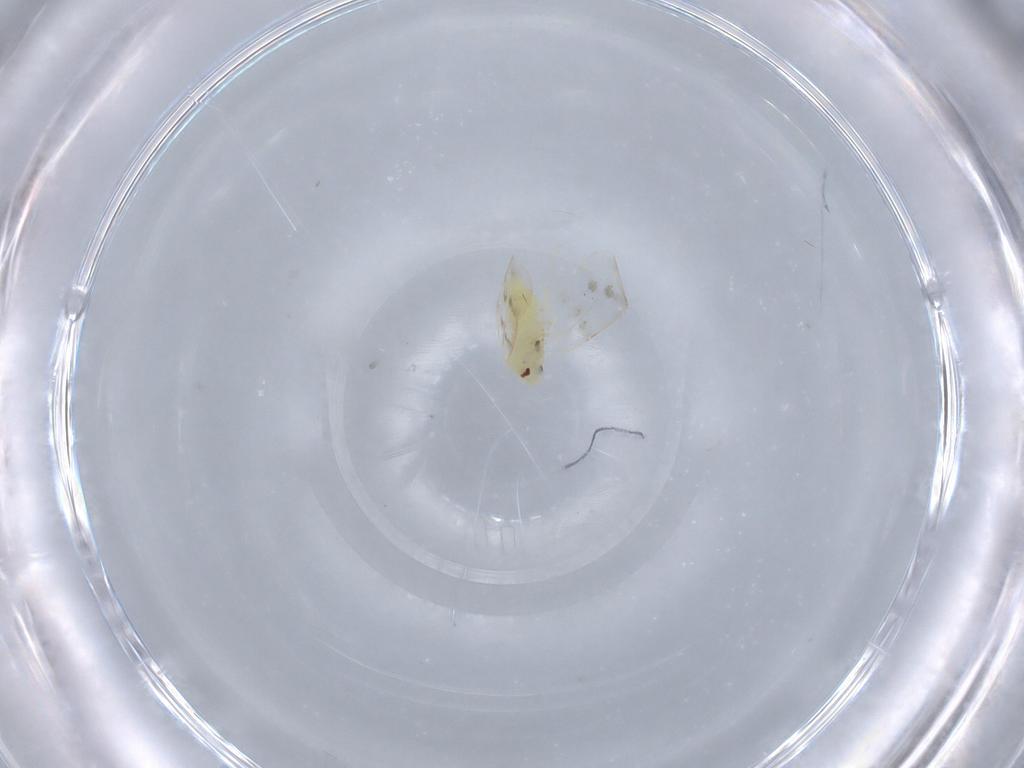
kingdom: Animalia
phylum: Arthropoda
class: Insecta
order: Hemiptera
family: Aleyrodidae
